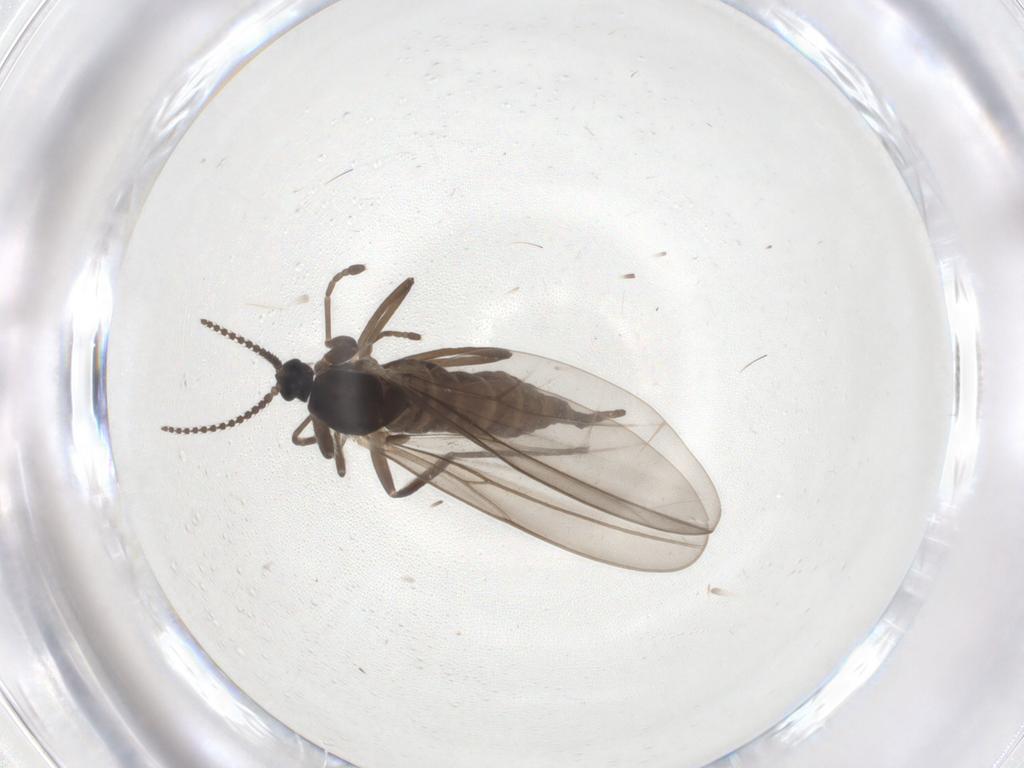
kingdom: Animalia
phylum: Arthropoda
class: Insecta
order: Diptera
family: Cecidomyiidae
